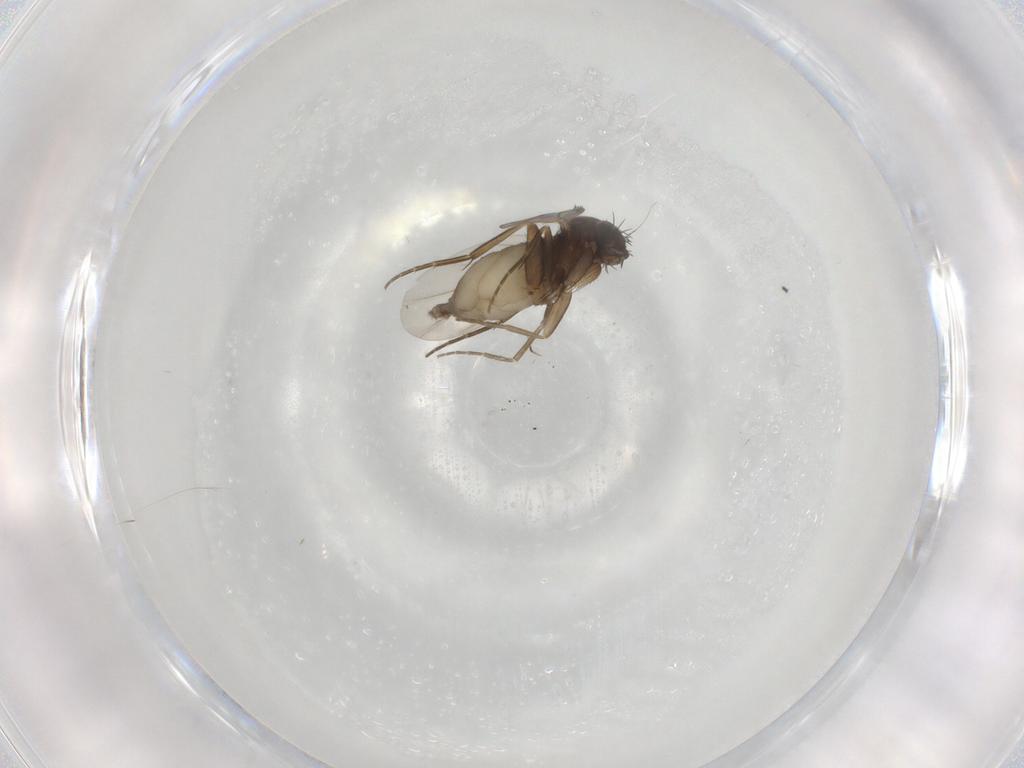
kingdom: Animalia
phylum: Arthropoda
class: Insecta
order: Diptera
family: Phoridae
